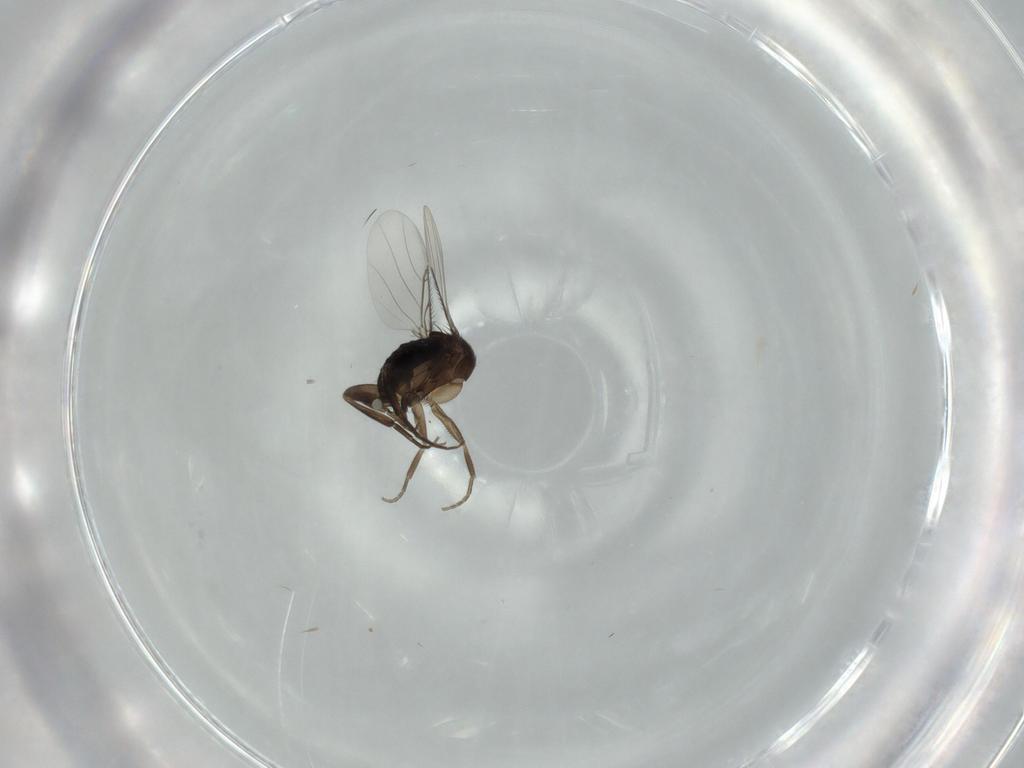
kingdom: Animalia
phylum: Arthropoda
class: Insecta
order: Diptera
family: Phoridae
